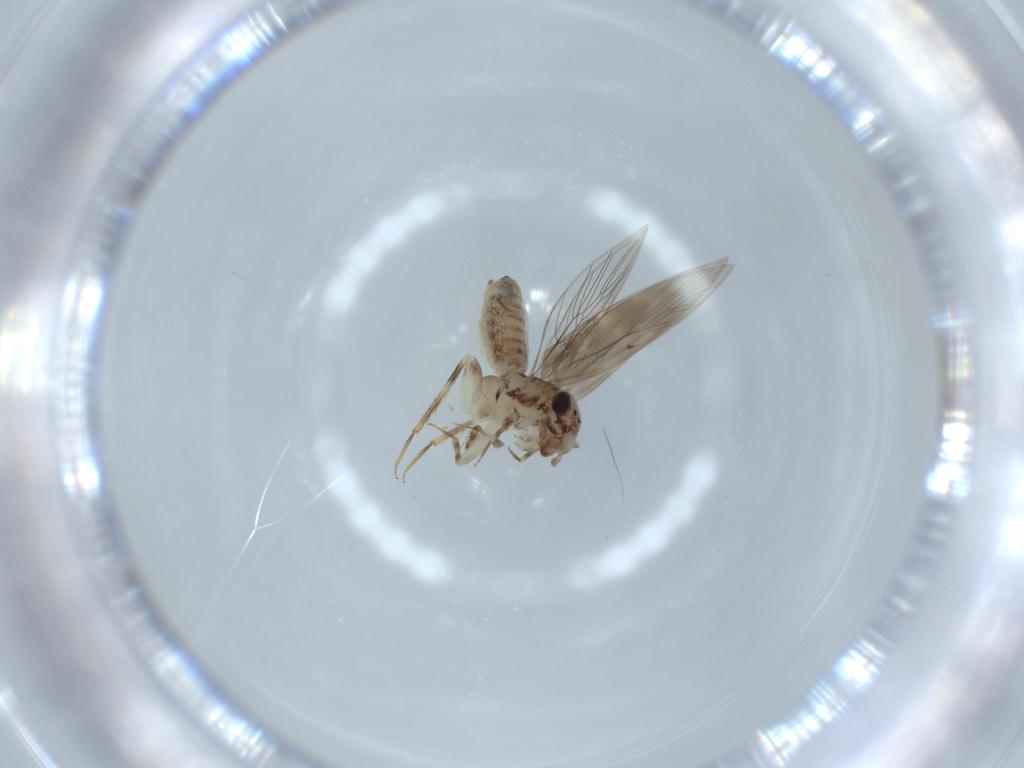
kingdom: Animalia
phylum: Arthropoda
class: Insecta
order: Psocodea
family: Lepidopsocidae
